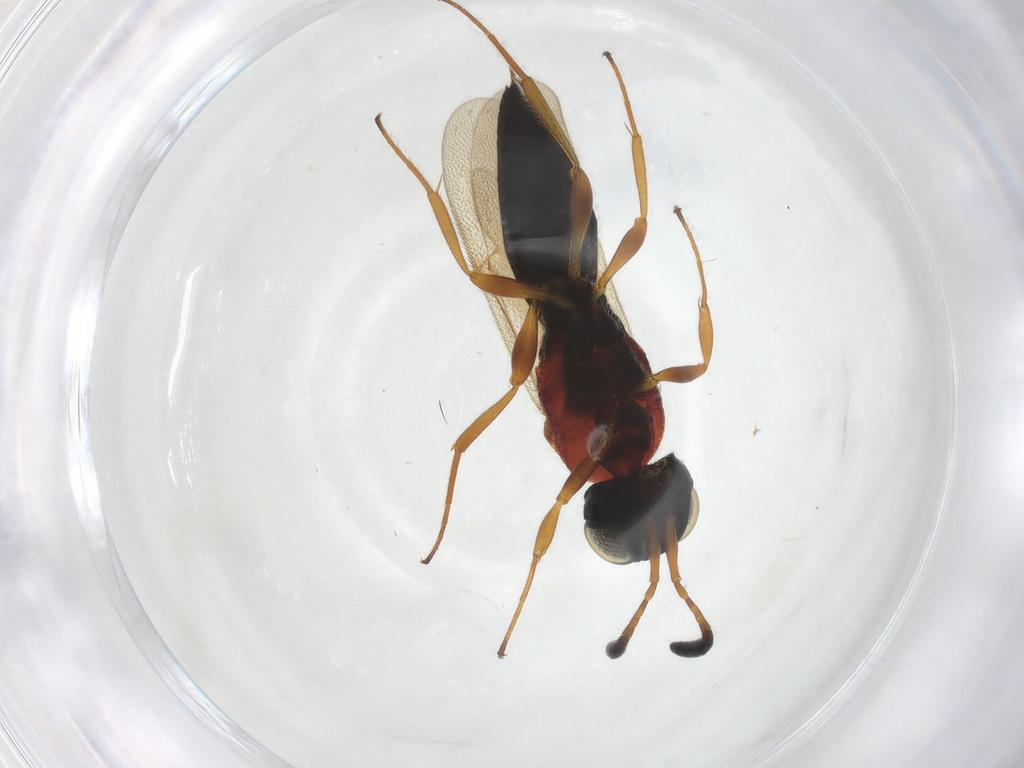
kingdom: Animalia
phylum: Arthropoda
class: Insecta
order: Hymenoptera
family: Scelionidae
